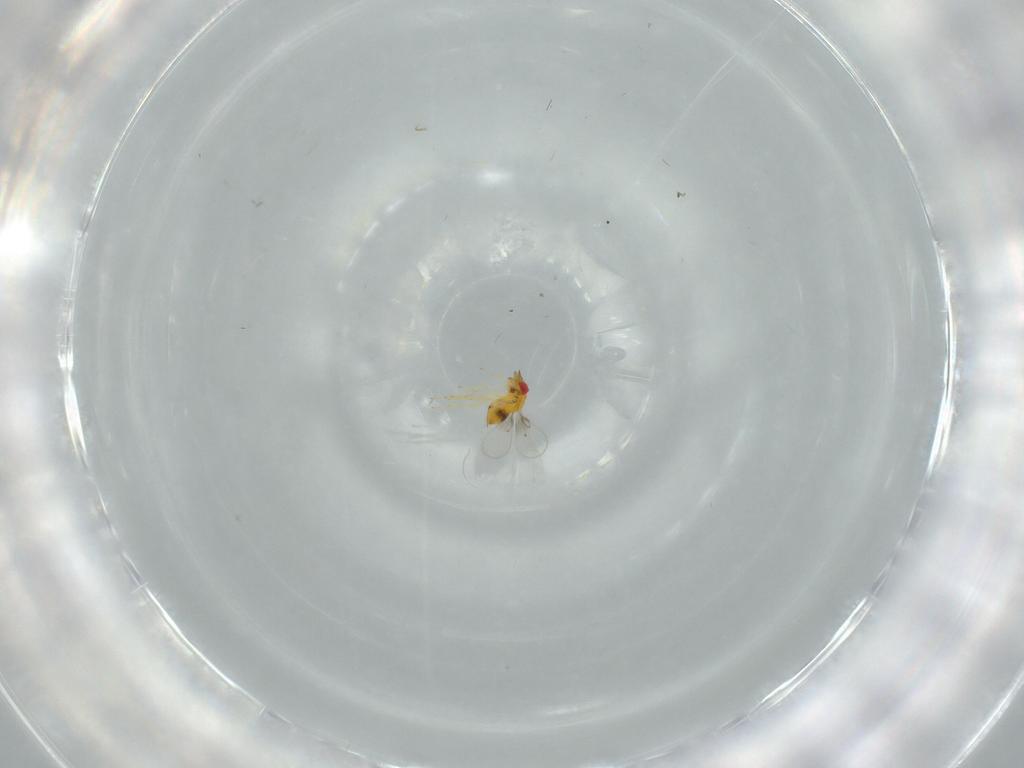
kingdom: Animalia
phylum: Arthropoda
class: Insecta
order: Hymenoptera
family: Trichogrammatidae
